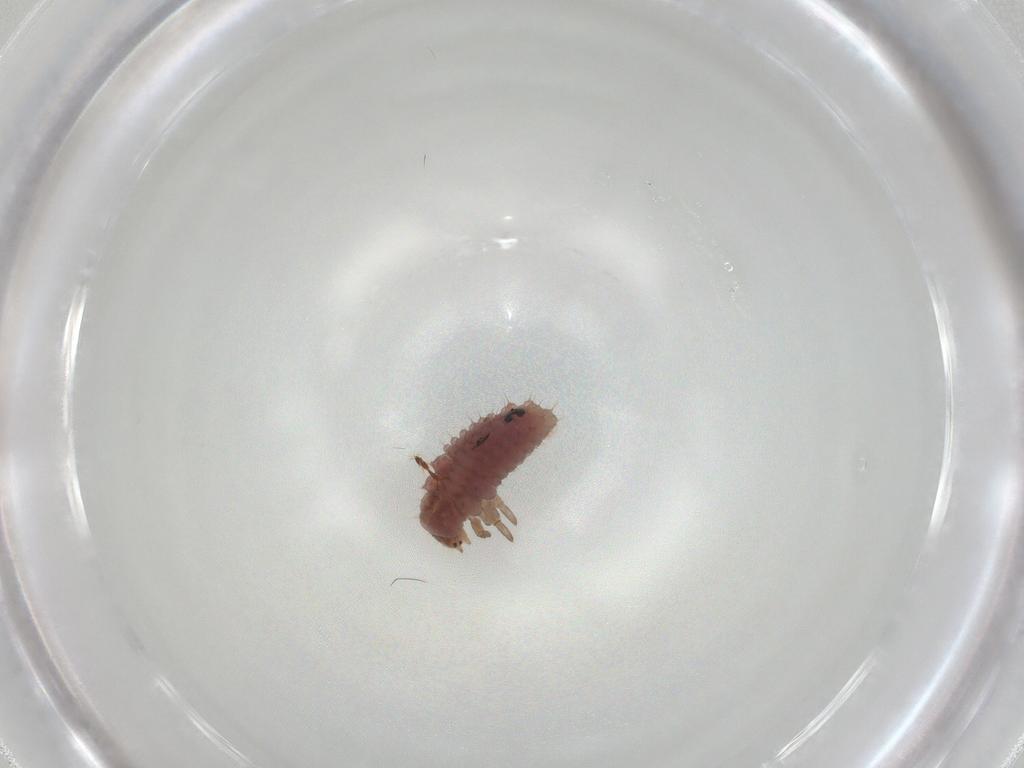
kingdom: Animalia
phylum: Arthropoda
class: Insecta
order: Coleoptera
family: Coccinellidae
